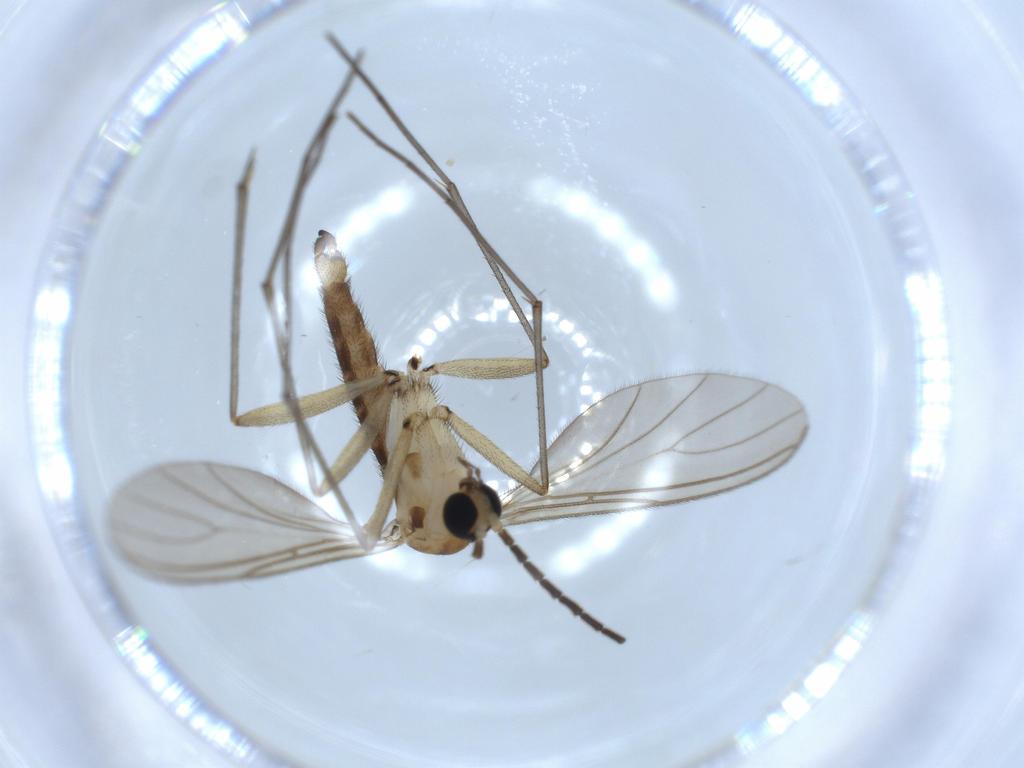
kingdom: Animalia
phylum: Arthropoda
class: Insecta
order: Diptera
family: Sciaridae
